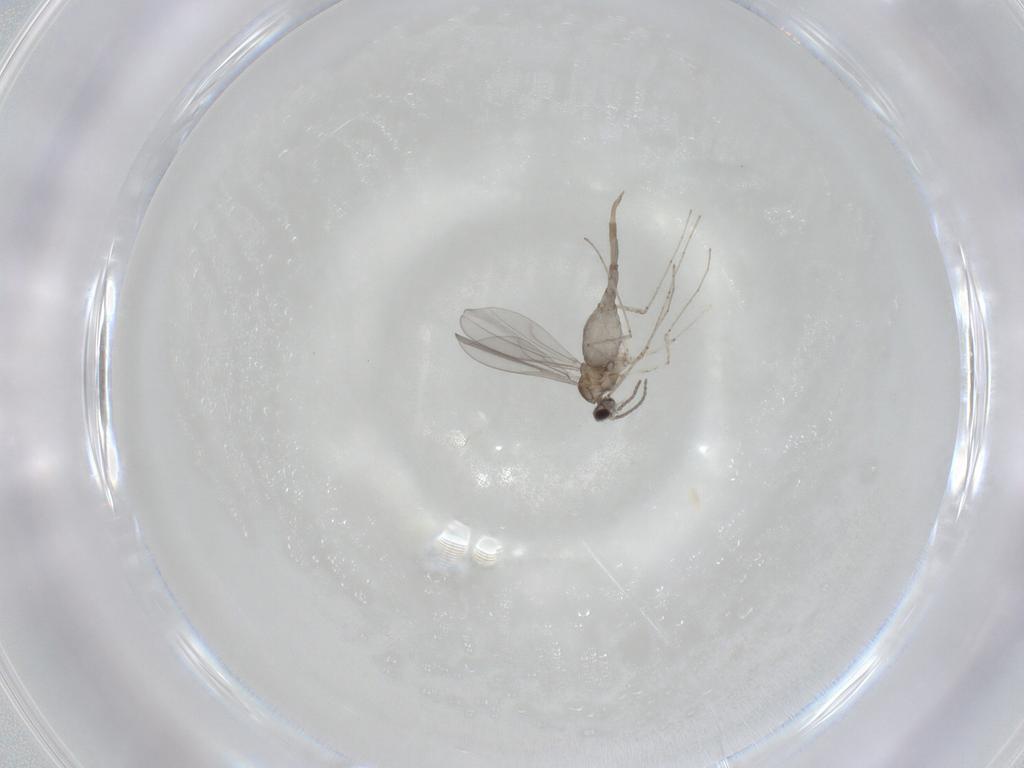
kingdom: Animalia
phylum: Arthropoda
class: Insecta
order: Diptera
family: Cecidomyiidae
